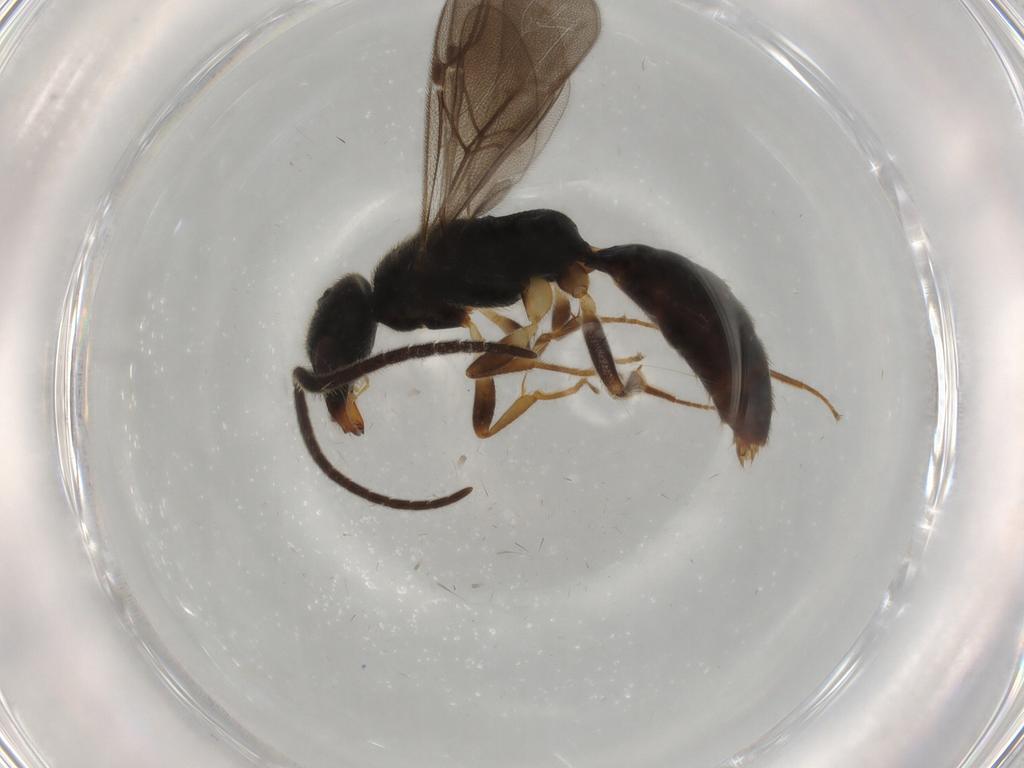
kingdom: Animalia
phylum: Arthropoda
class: Insecta
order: Hymenoptera
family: Bethylidae
